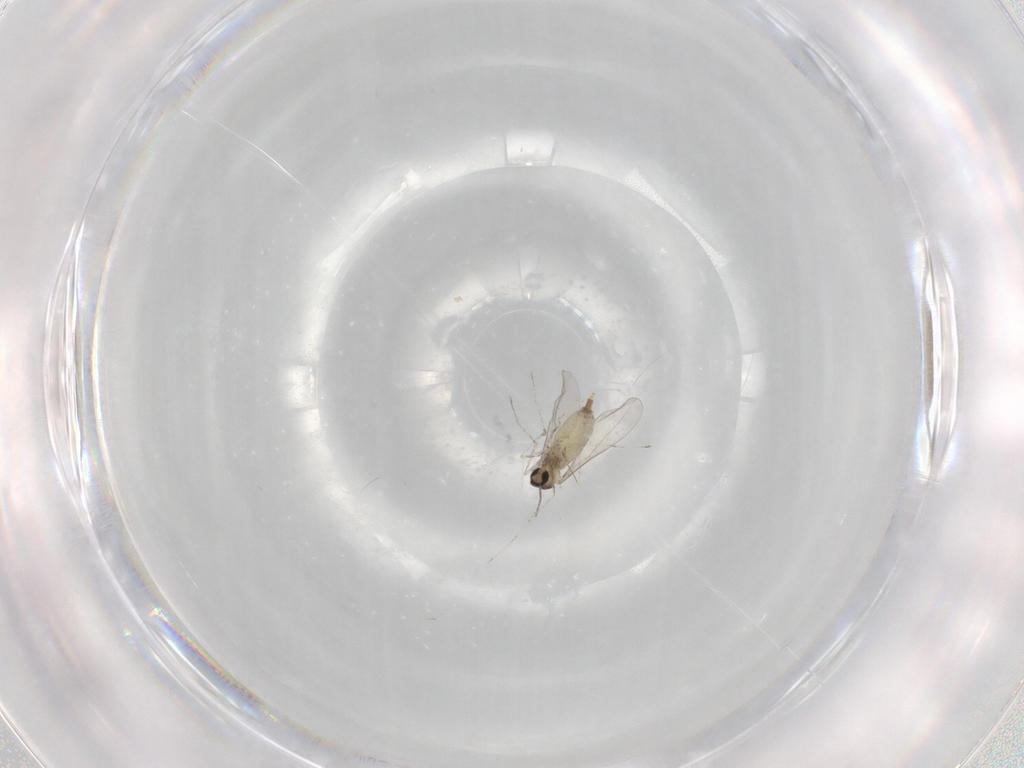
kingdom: Animalia
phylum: Arthropoda
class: Insecta
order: Diptera
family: Cecidomyiidae
